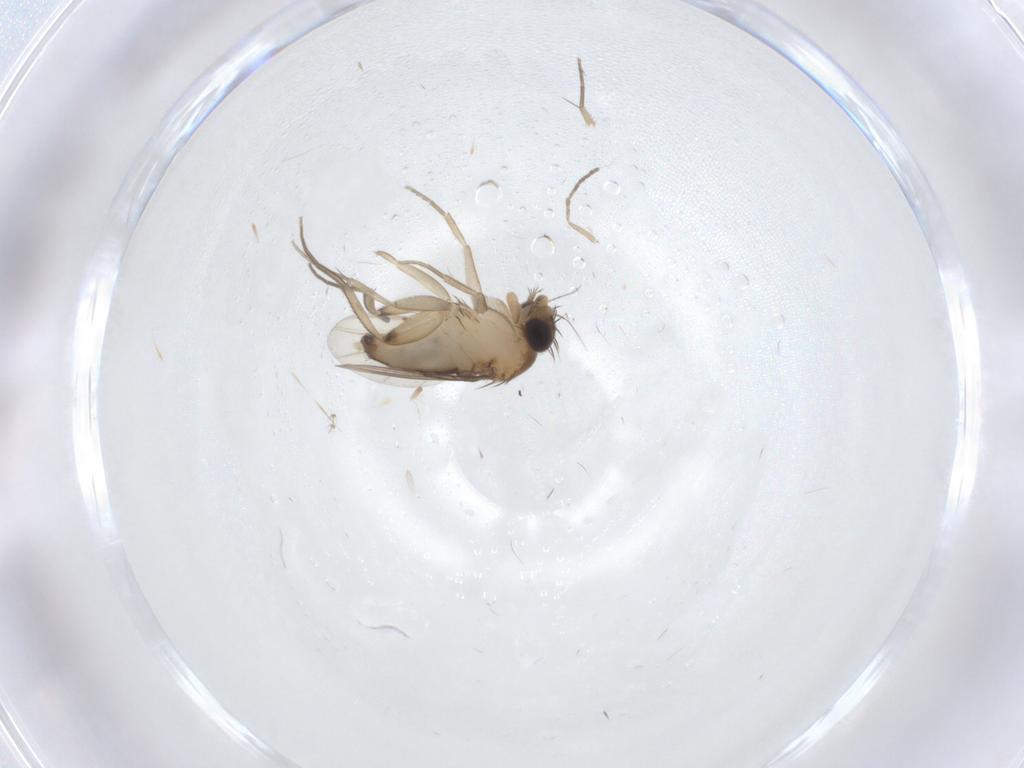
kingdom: Animalia
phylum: Arthropoda
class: Insecta
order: Diptera
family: Phoridae
